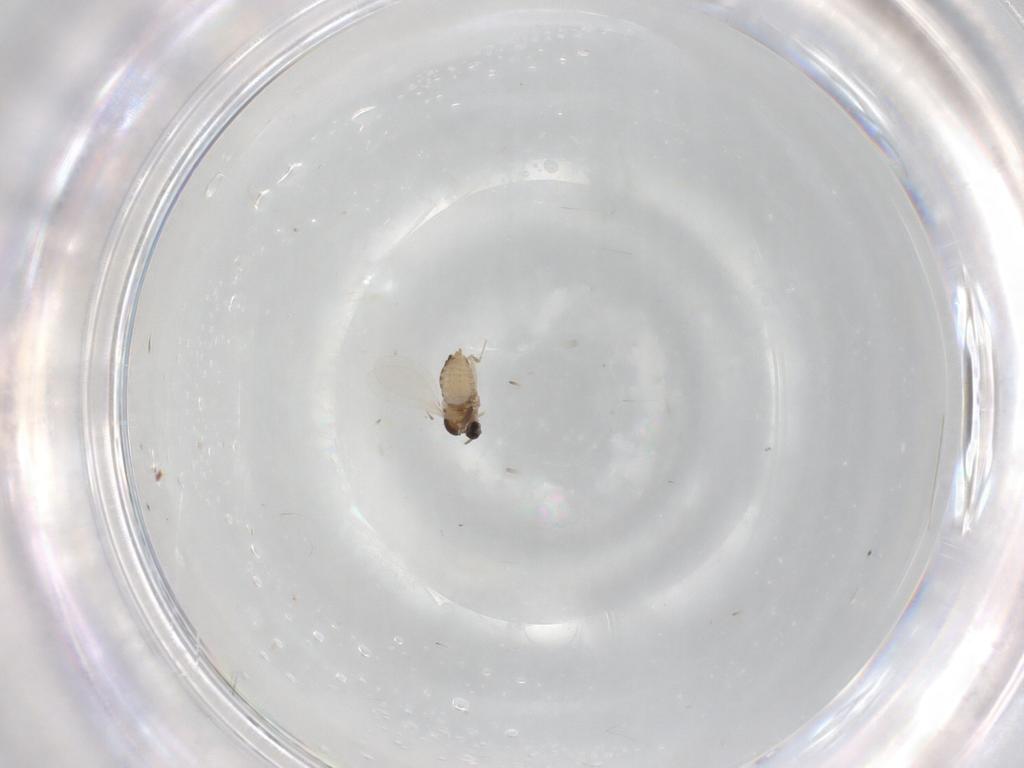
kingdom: Animalia
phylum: Arthropoda
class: Insecta
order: Diptera
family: Cecidomyiidae
